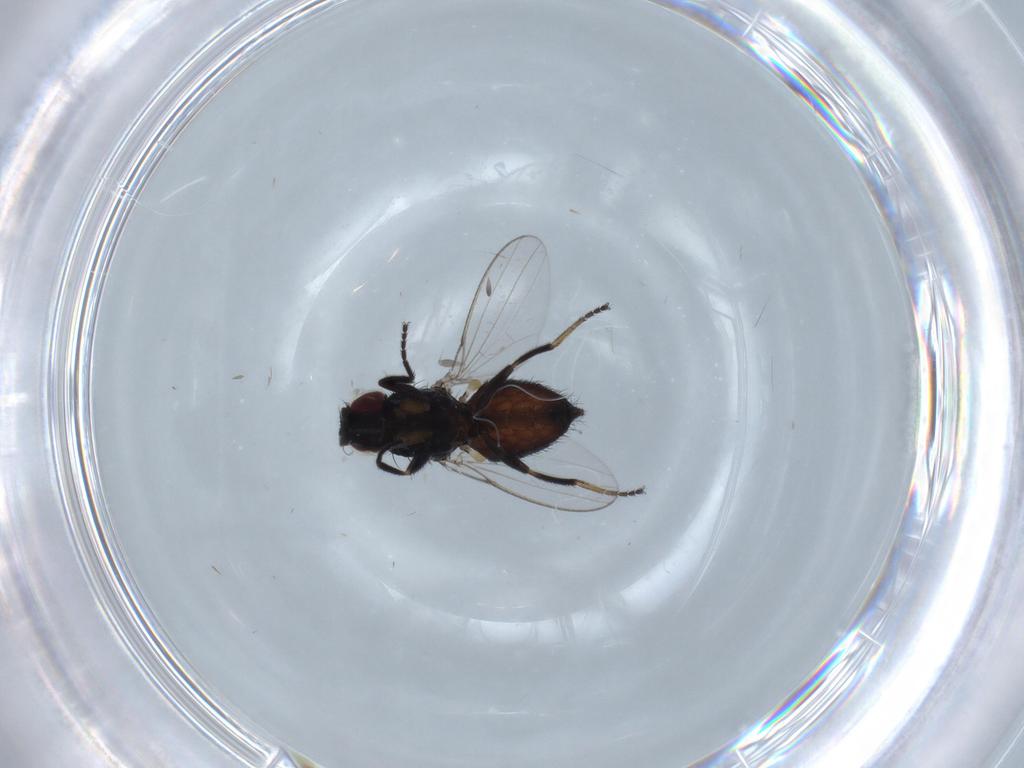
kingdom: Animalia
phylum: Arthropoda
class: Insecta
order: Diptera
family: Milichiidae
